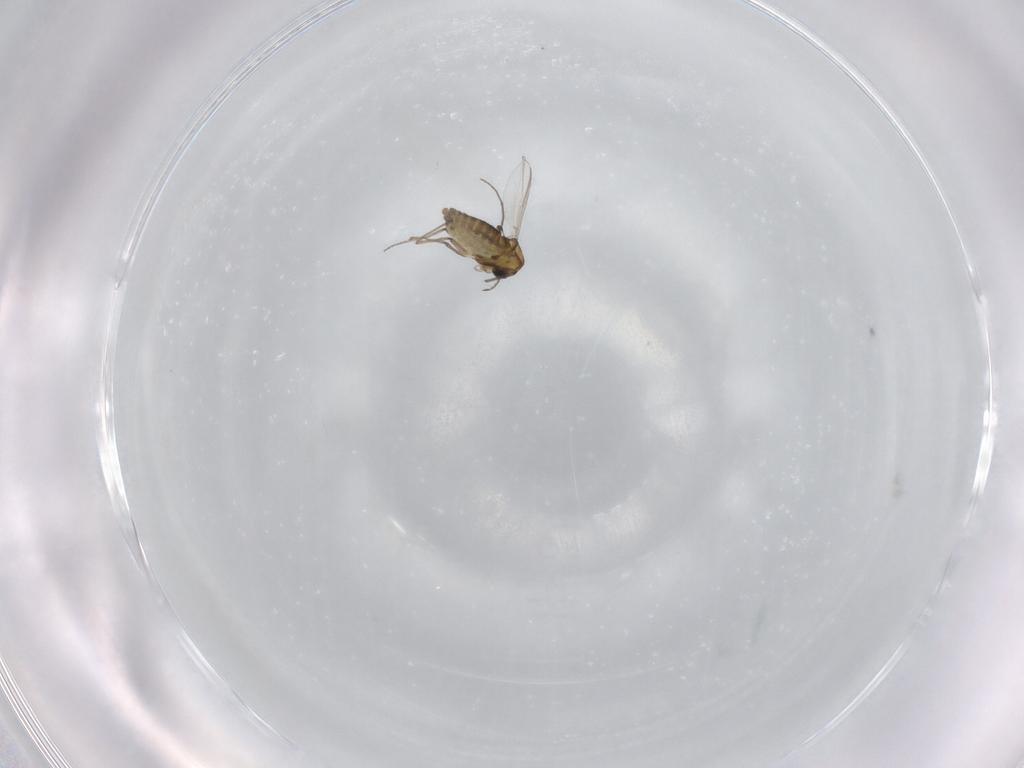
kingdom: Animalia
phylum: Arthropoda
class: Insecta
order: Diptera
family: Chironomidae
